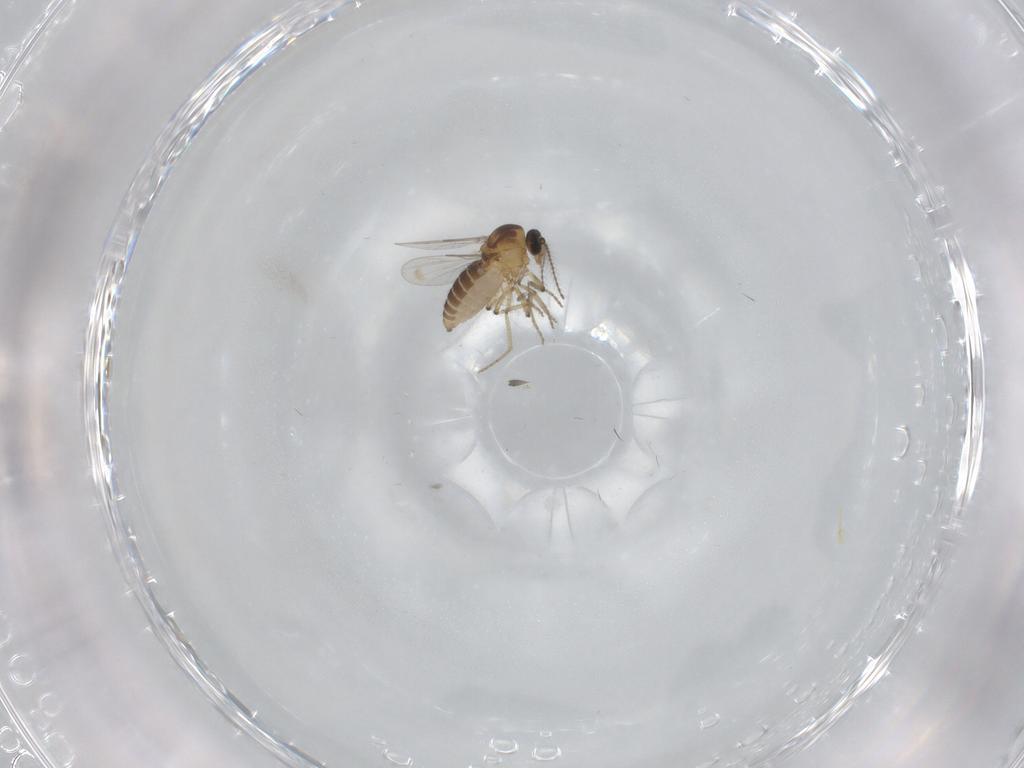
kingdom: Animalia
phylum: Arthropoda
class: Insecta
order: Diptera
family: Ceratopogonidae
